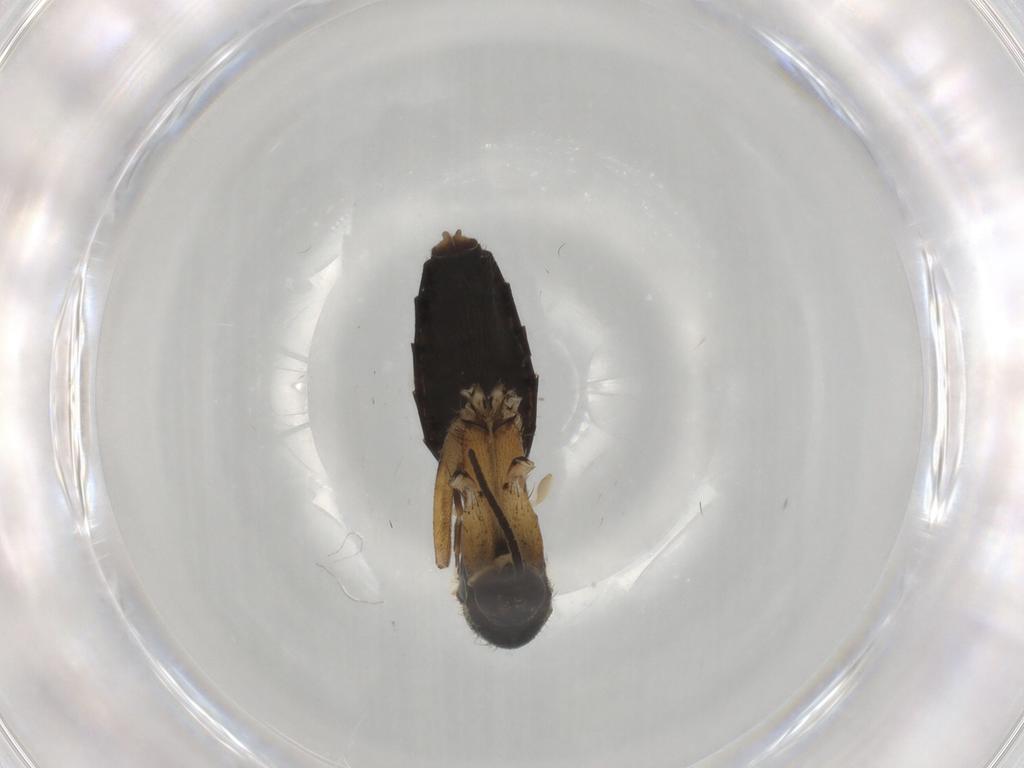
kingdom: Animalia
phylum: Arthropoda
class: Insecta
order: Diptera
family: Mycetophilidae
